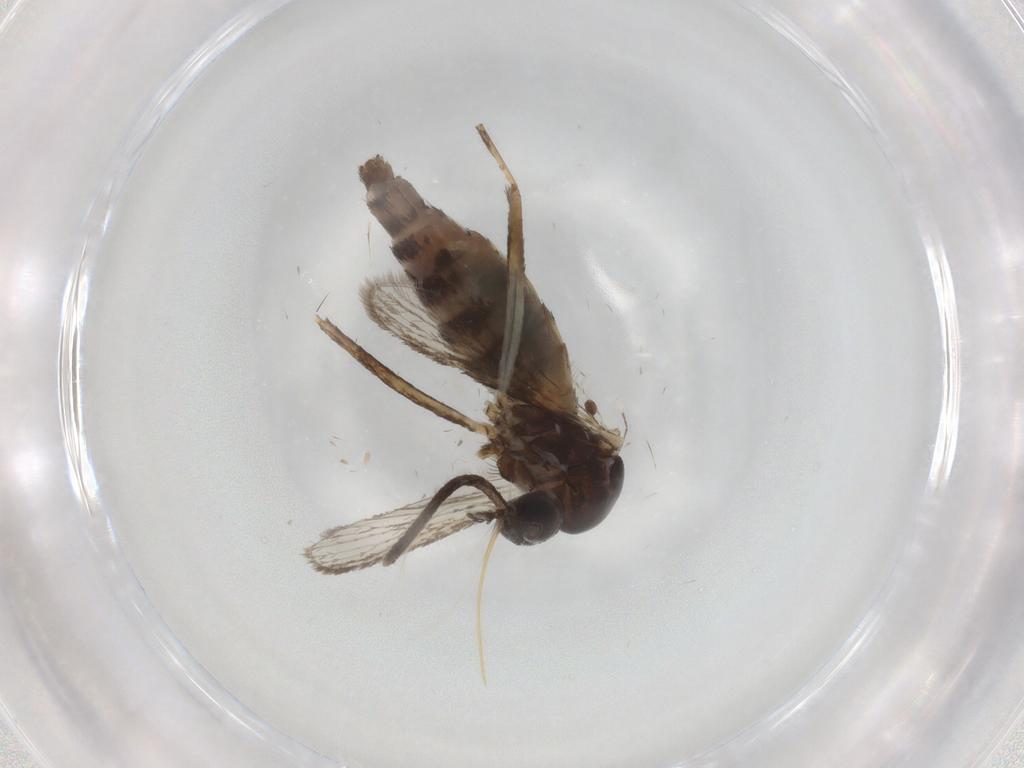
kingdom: Animalia
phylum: Arthropoda
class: Insecta
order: Diptera
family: Culicidae
